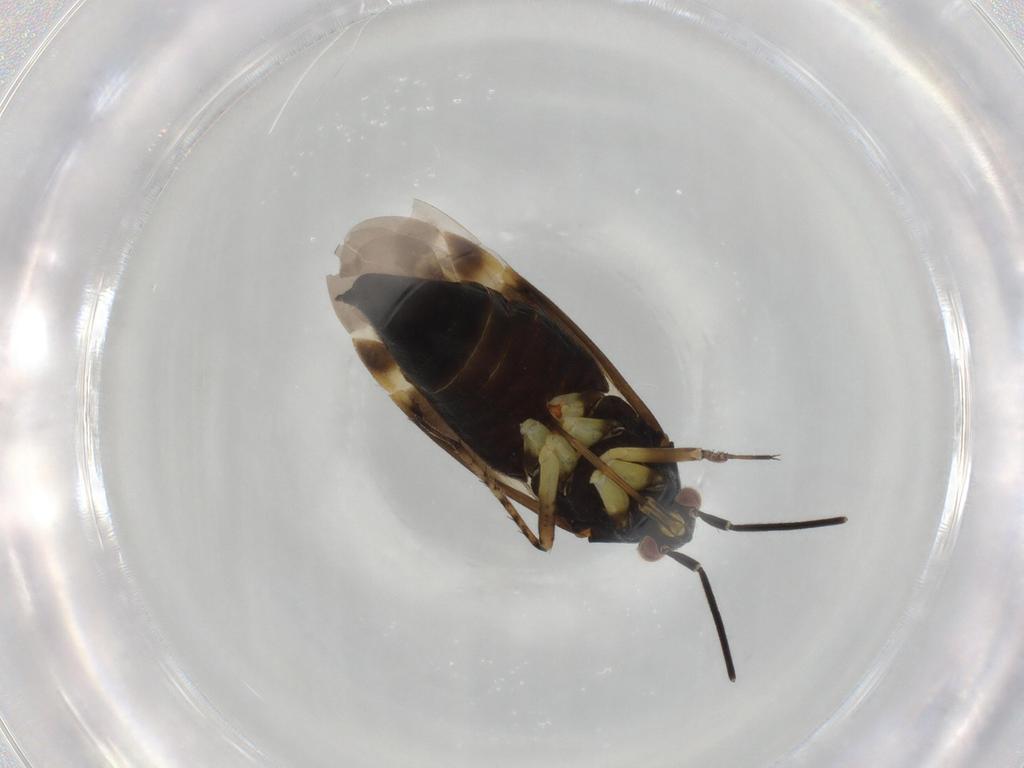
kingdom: Animalia
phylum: Arthropoda
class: Insecta
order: Hemiptera
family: Miridae
